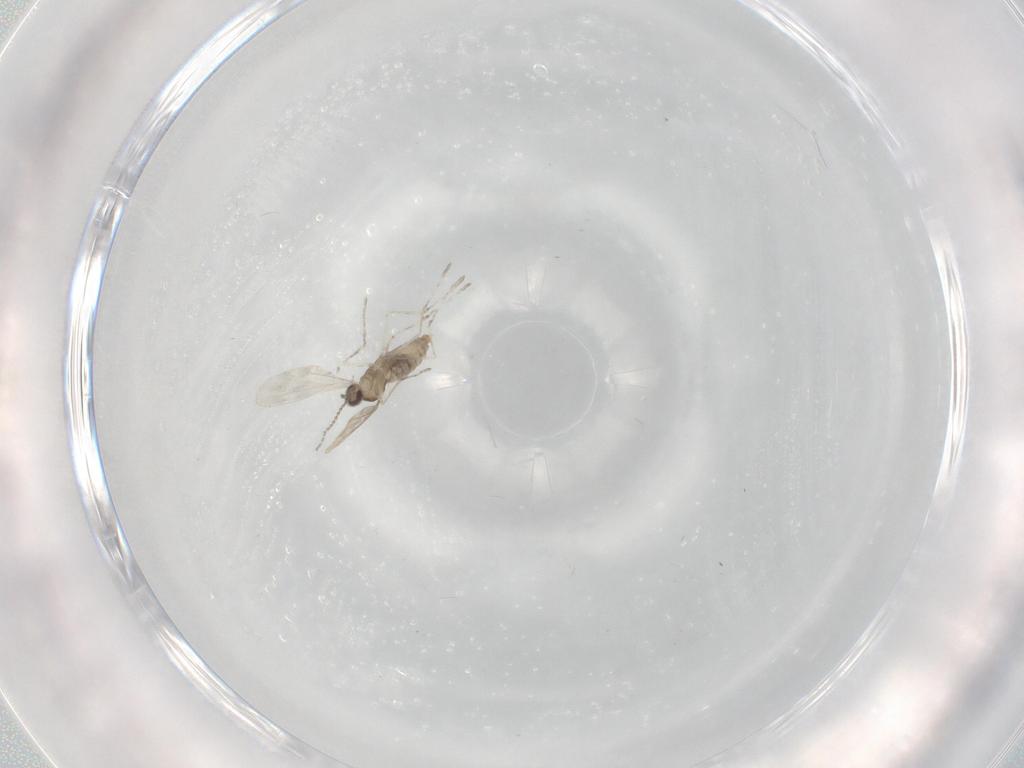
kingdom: Animalia
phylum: Arthropoda
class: Insecta
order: Diptera
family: Cecidomyiidae
